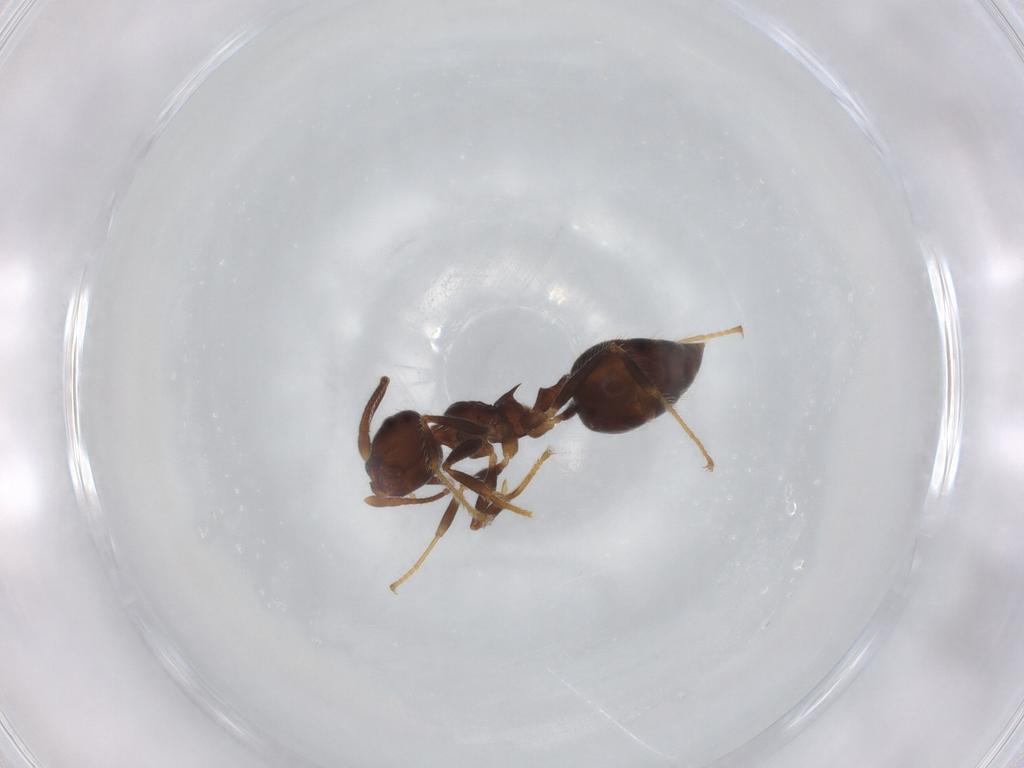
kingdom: Animalia
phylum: Arthropoda
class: Insecta
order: Hymenoptera
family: Formicidae
